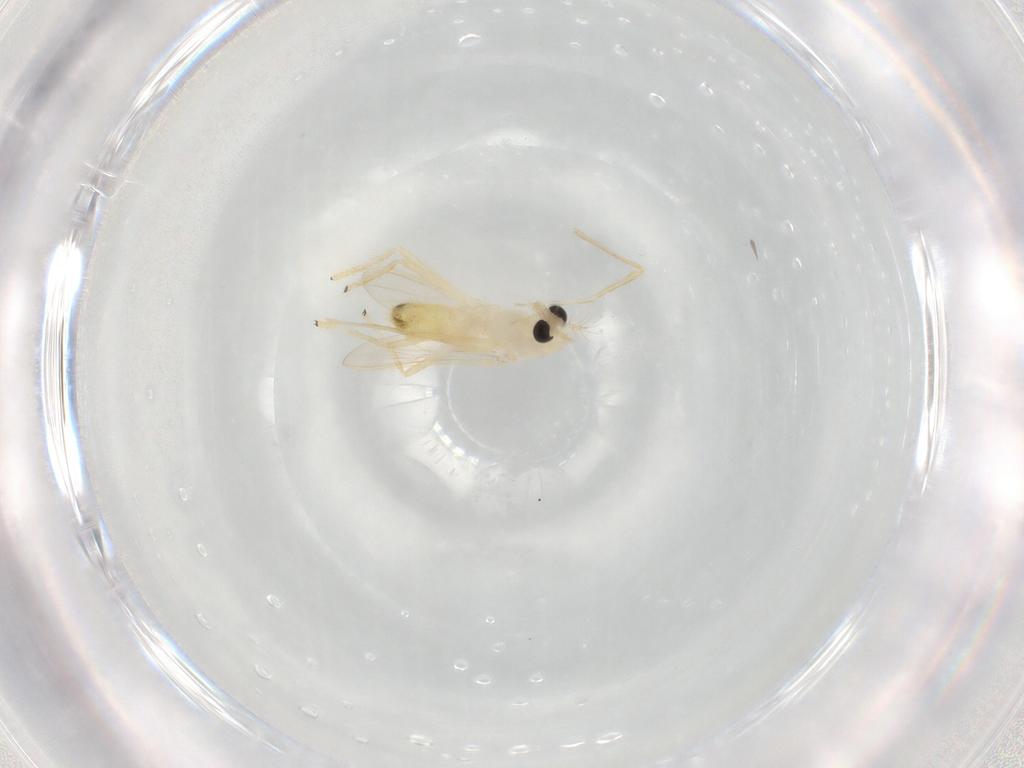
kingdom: Animalia
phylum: Arthropoda
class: Insecta
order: Diptera
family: Chironomidae
